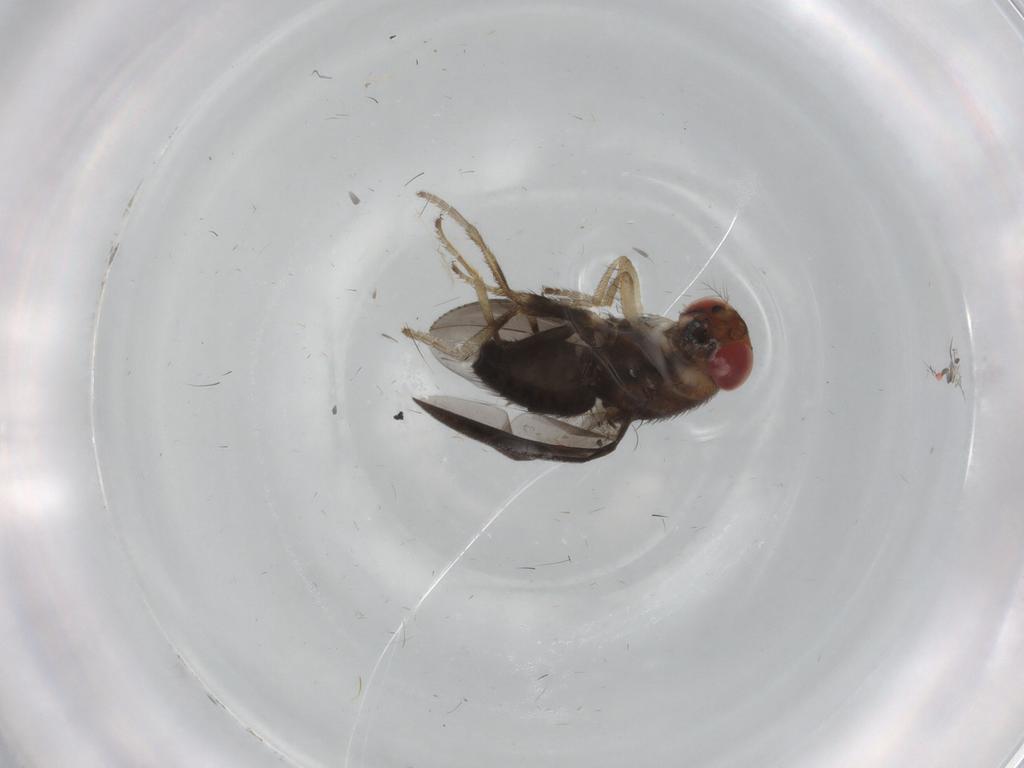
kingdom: Animalia
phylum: Arthropoda
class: Insecta
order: Diptera
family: Drosophilidae
